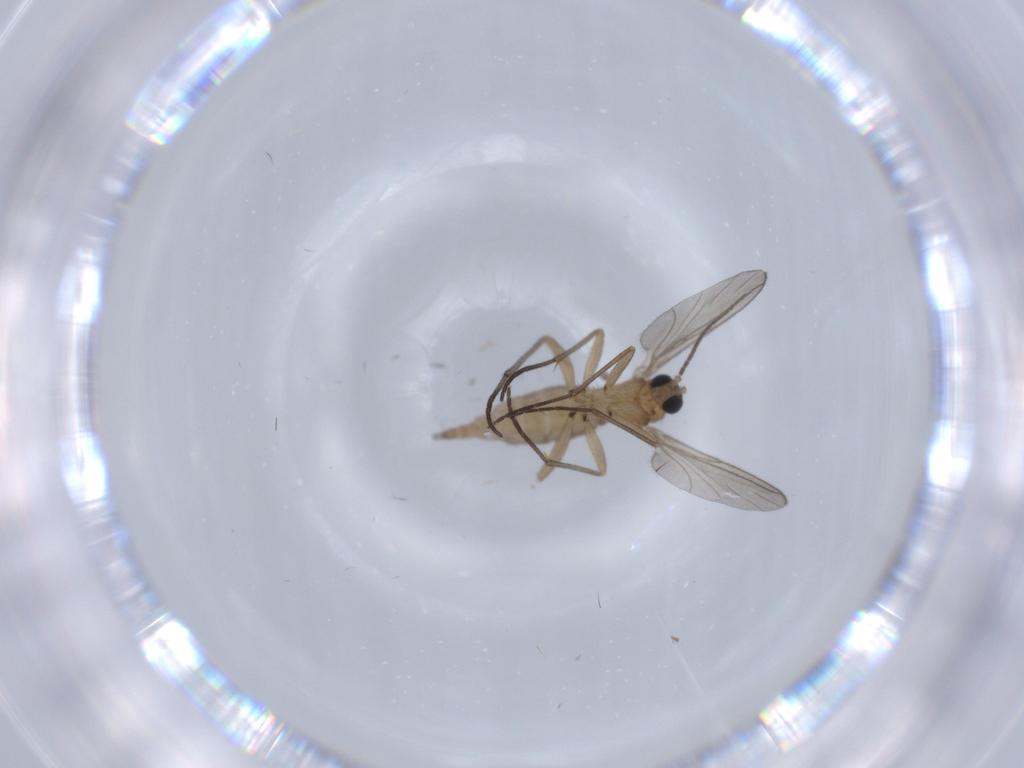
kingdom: Animalia
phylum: Arthropoda
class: Insecta
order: Diptera
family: Sciaridae
